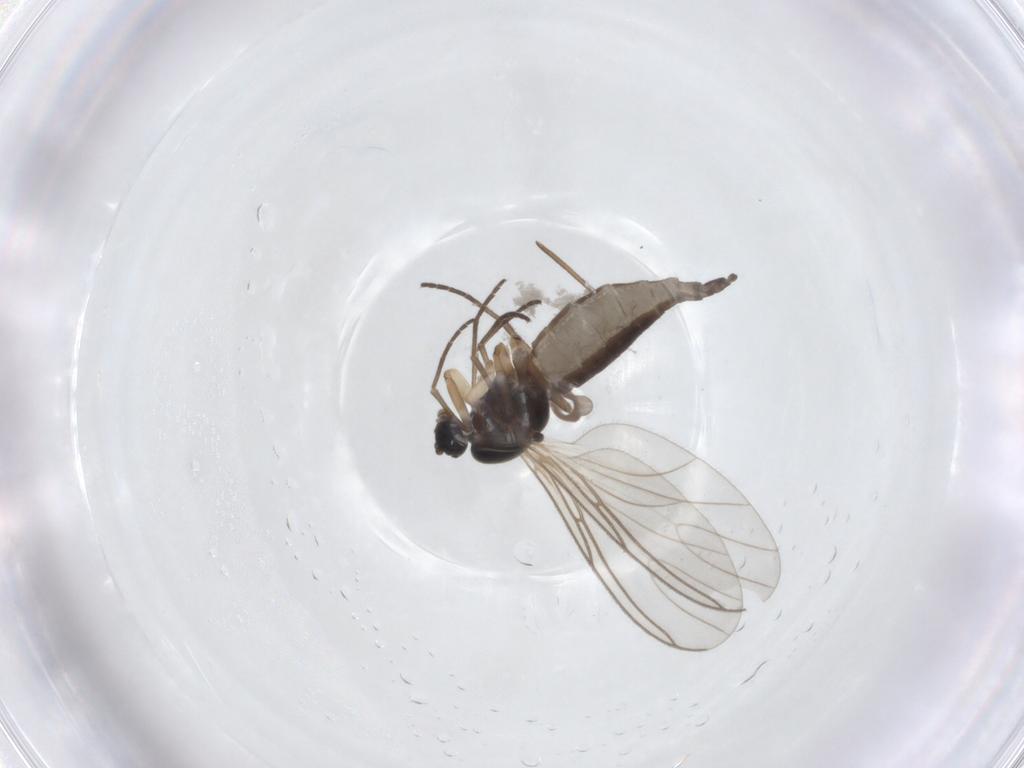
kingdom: Animalia
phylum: Arthropoda
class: Insecta
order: Diptera
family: Sciaridae
